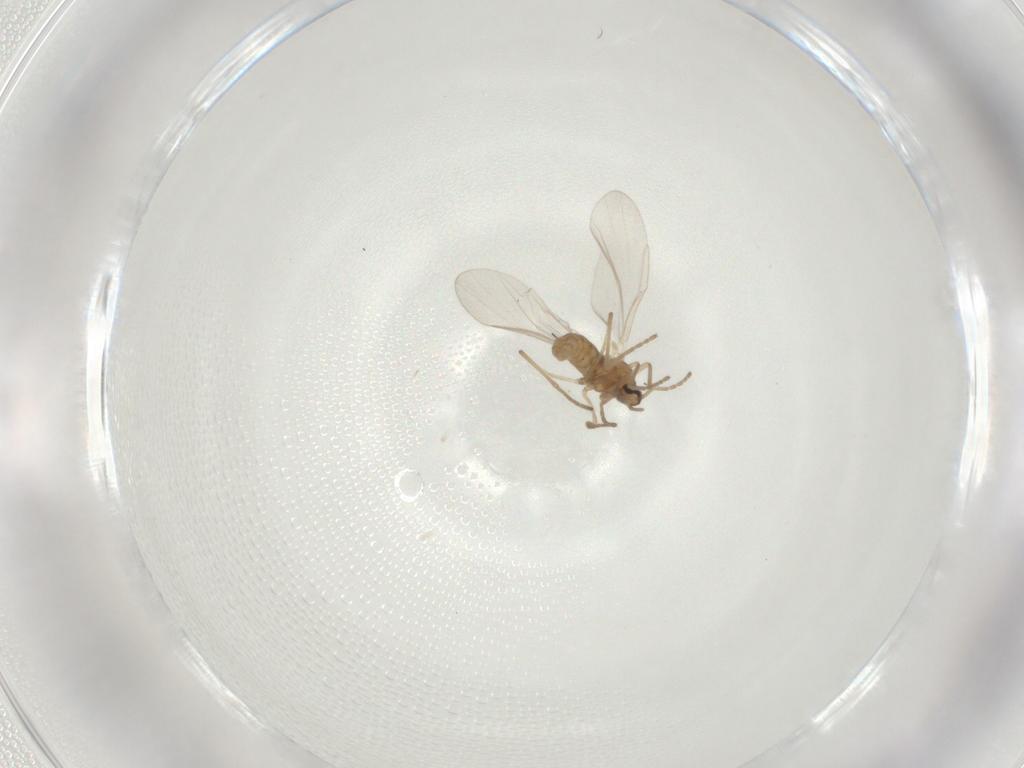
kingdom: Animalia
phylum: Arthropoda
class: Insecta
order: Diptera
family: Cecidomyiidae
